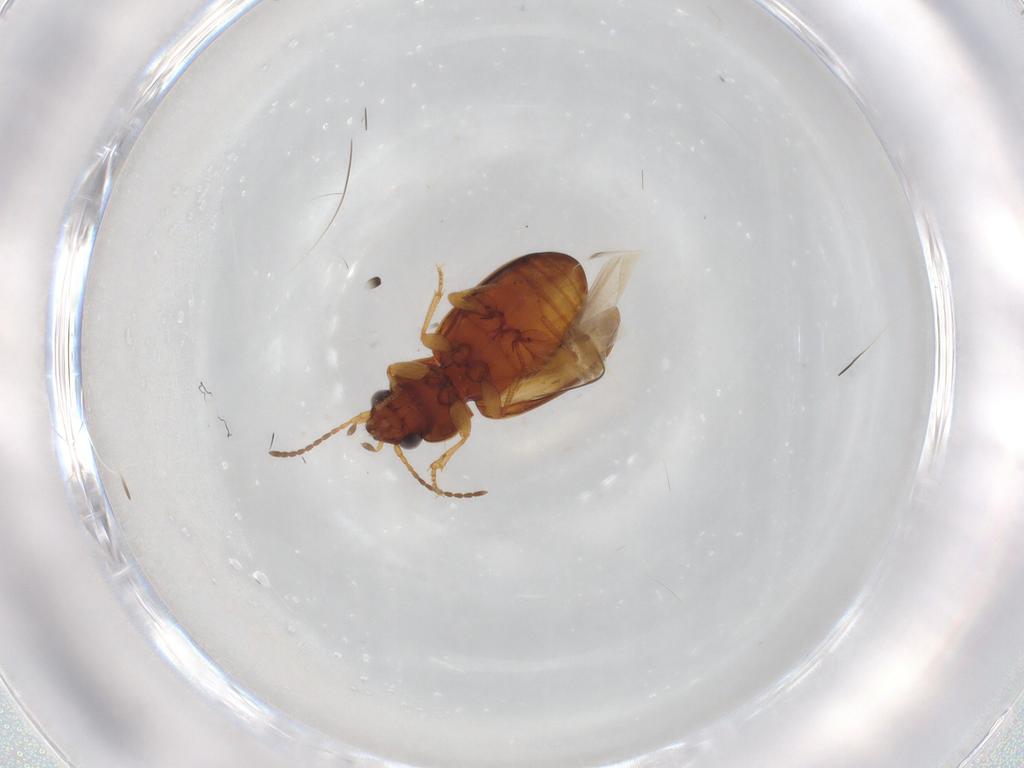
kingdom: Animalia
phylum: Arthropoda
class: Insecta
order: Coleoptera
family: Carabidae
